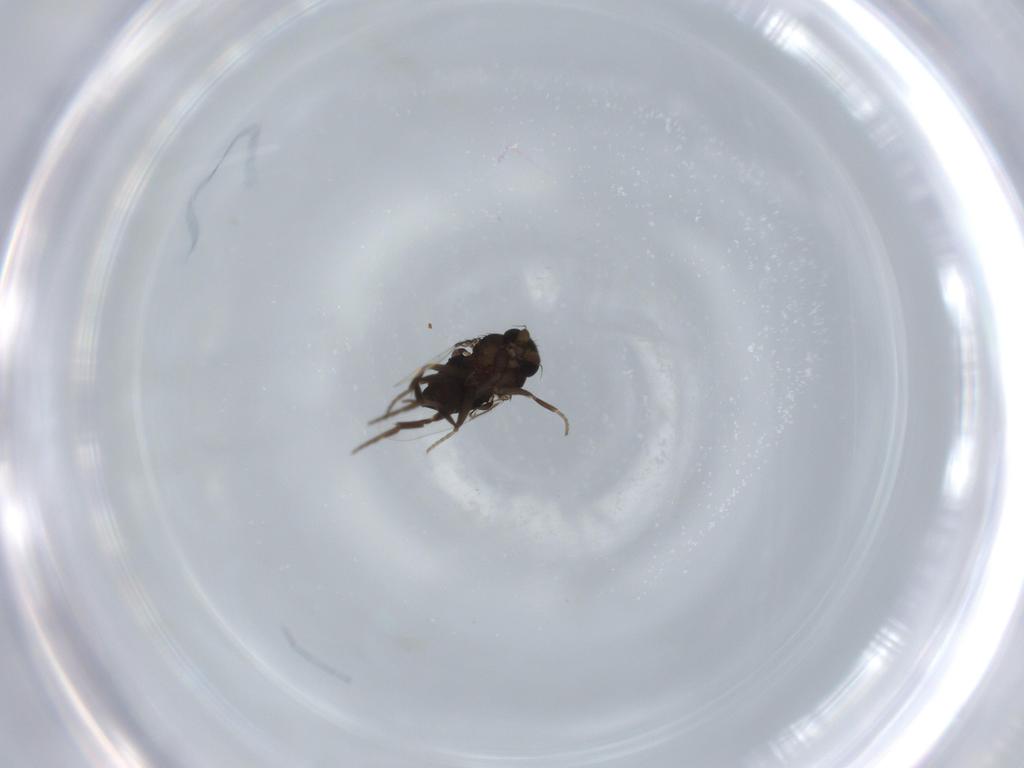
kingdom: Animalia
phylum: Arthropoda
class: Insecta
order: Diptera
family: Phoridae
